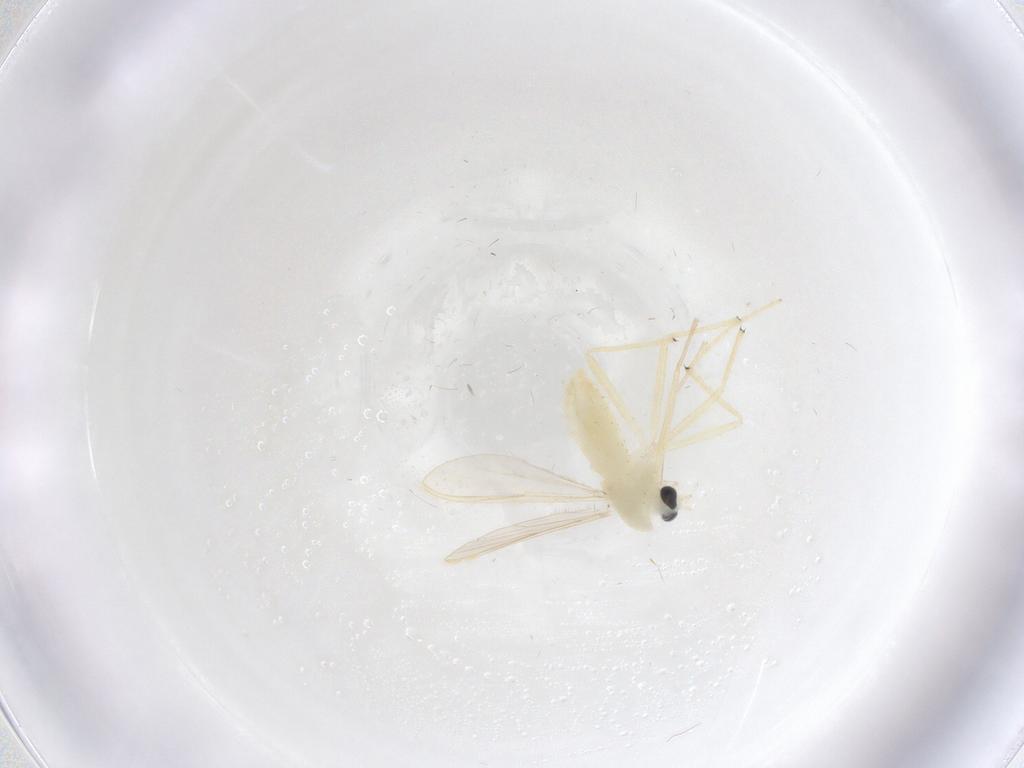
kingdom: Animalia
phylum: Arthropoda
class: Insecta
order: Diptera
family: Chironomidae
